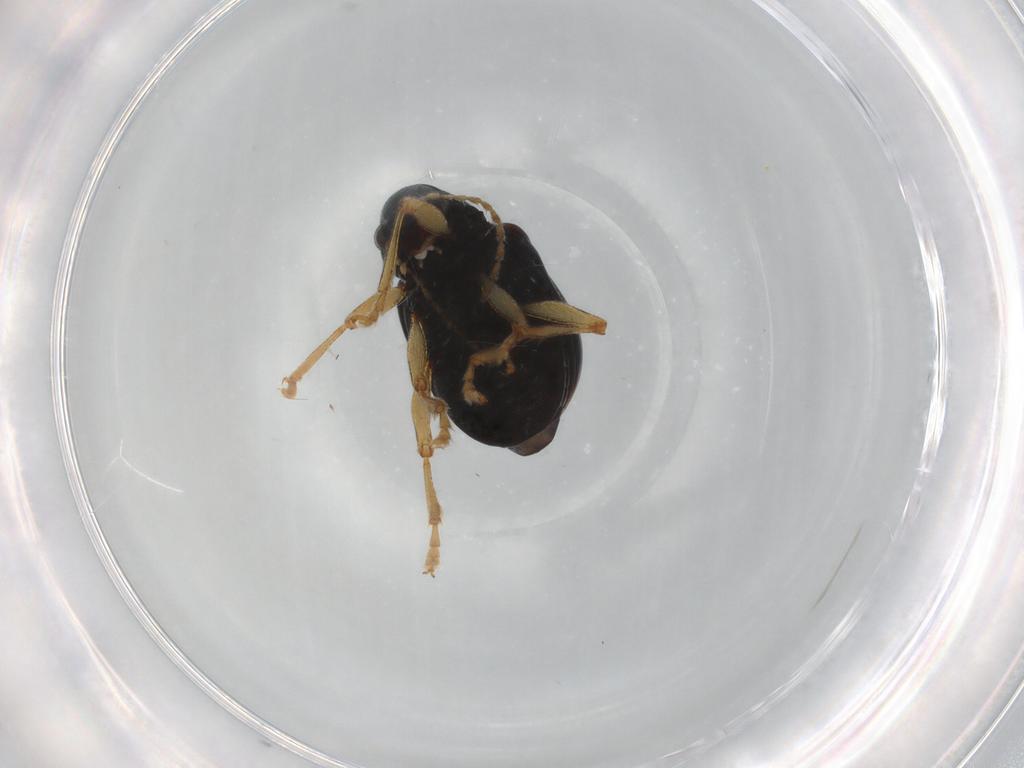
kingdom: Animalia
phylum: Arthropoda
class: Insecta
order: Coleoptera
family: Chrysomelidae
